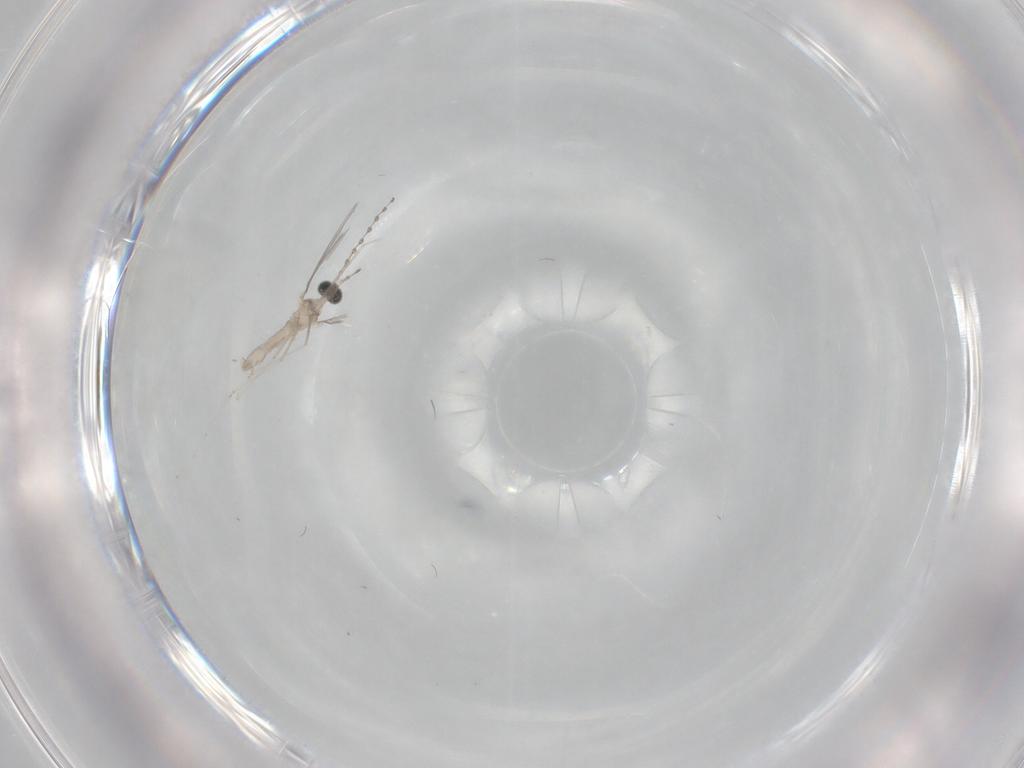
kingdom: Animalia
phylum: Arthropoda
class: Insecta
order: Diptera
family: Cecidomyiidae
